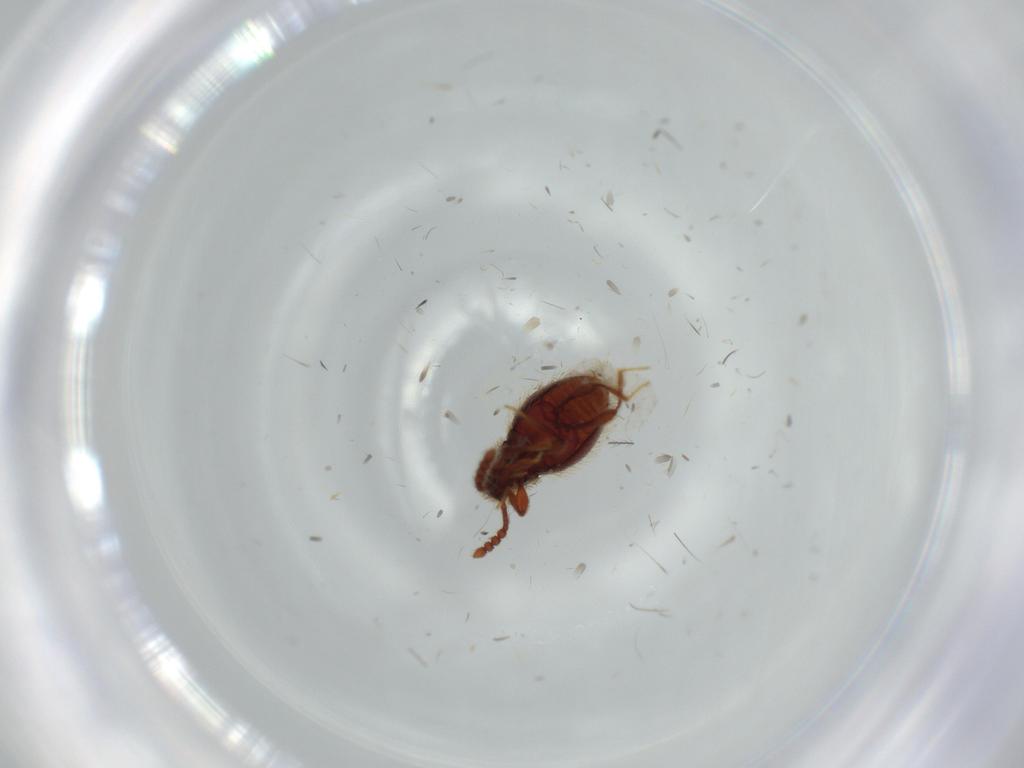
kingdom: Animalia
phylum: Arthropoda
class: Insecta
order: Coleoptera
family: Staphylinidae
